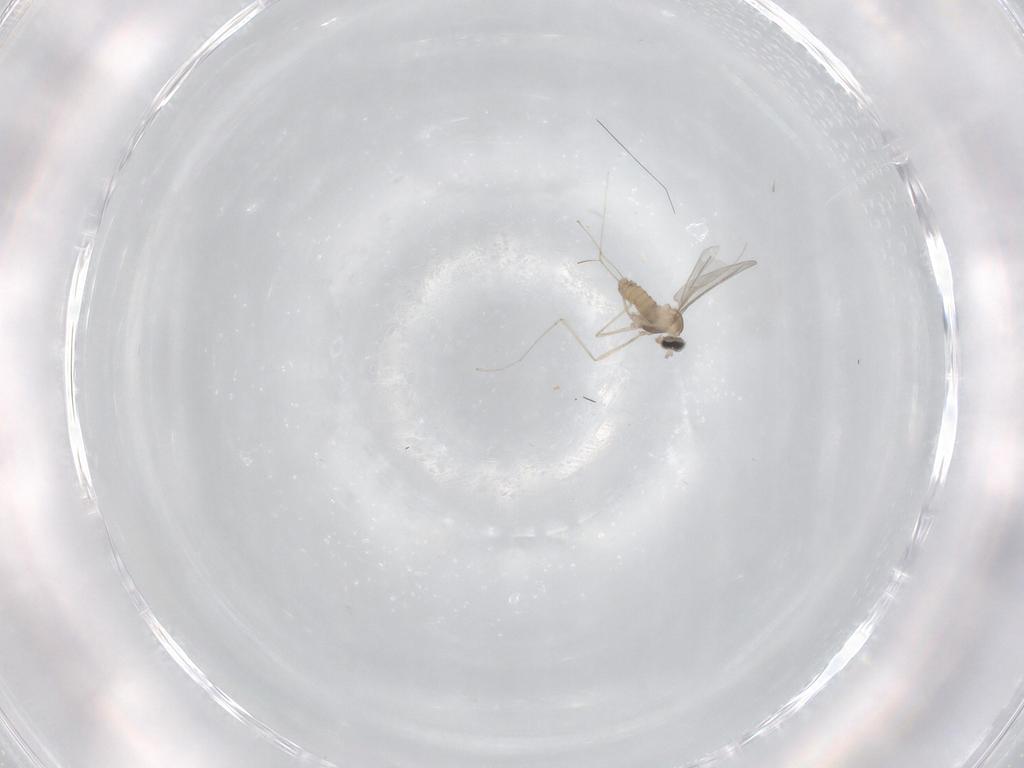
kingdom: Animalia
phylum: Arthropoda
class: Insecta
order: Diptera
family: Cecidomyiidae
